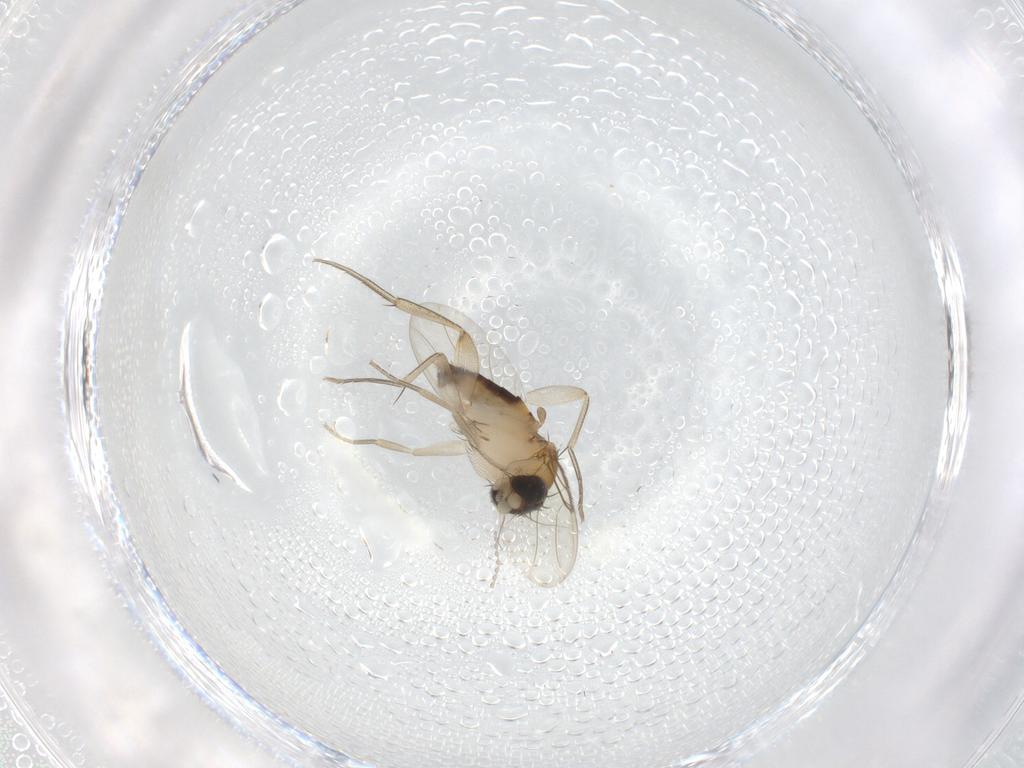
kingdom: Animalia
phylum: Arthropoda
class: Insecta
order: Diptera
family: Phoridae
